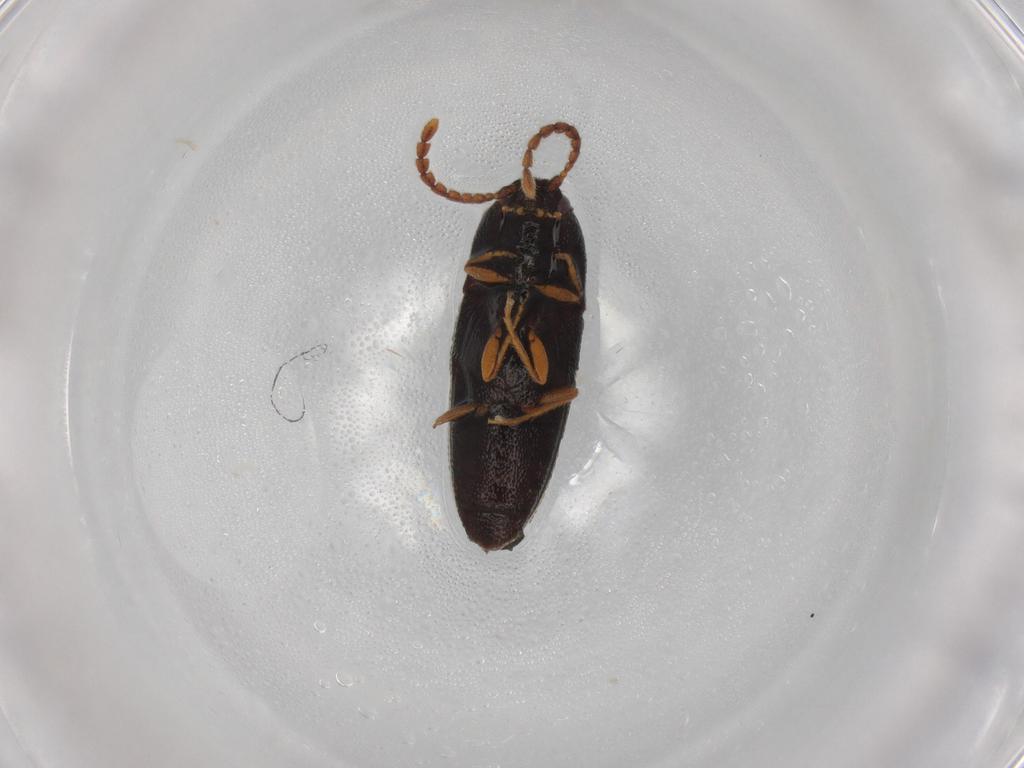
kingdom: Animalia
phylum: Arthropoda
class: Insecta
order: Coleoptera
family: Elateridae
